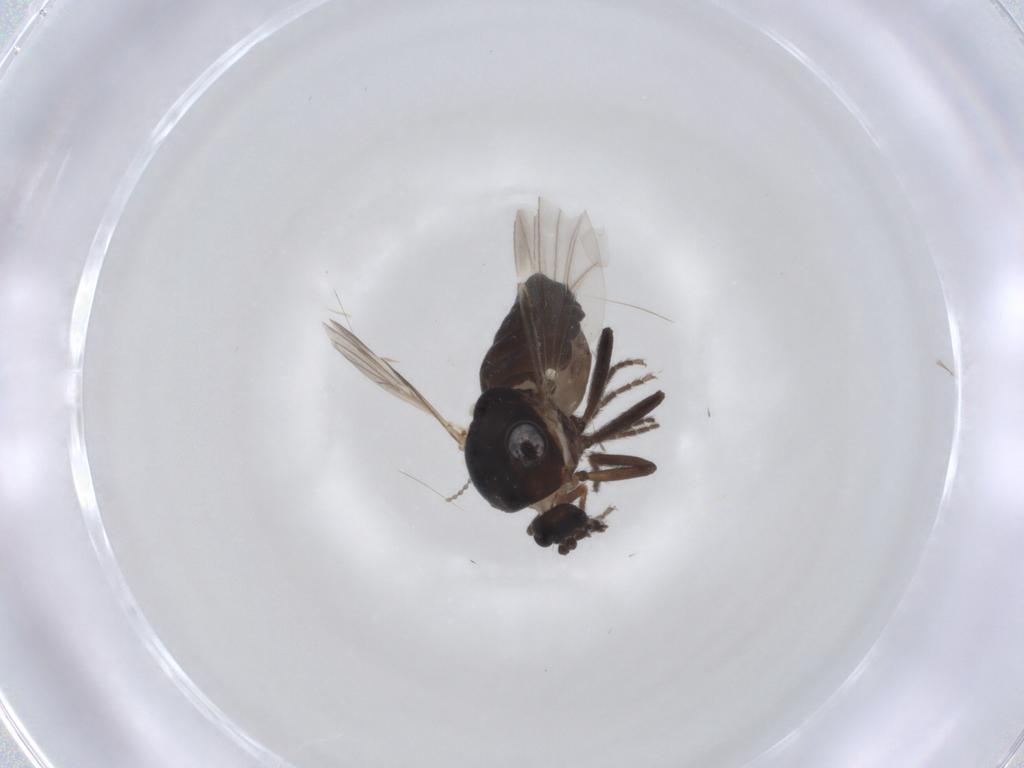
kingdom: Animalia
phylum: Arthropoda
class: Insecta
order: Diptera
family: Ceratopogonidae
